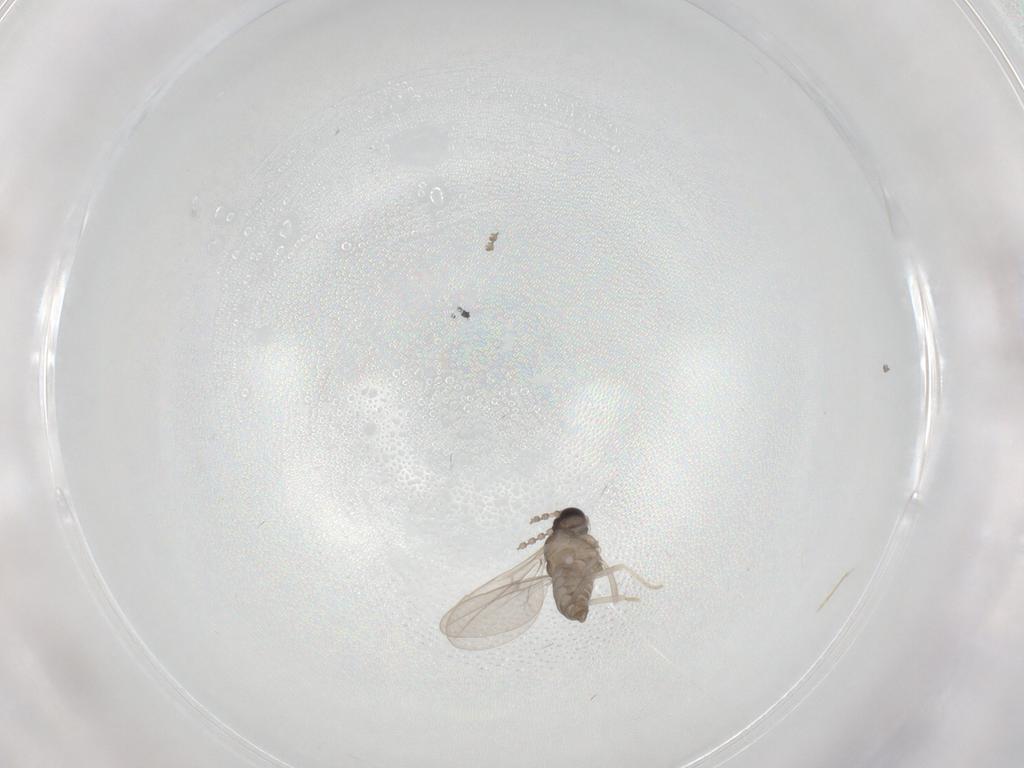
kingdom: Animalia
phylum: Arthropoda
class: Insecta
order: Diptera
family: Cecidomyiidae
